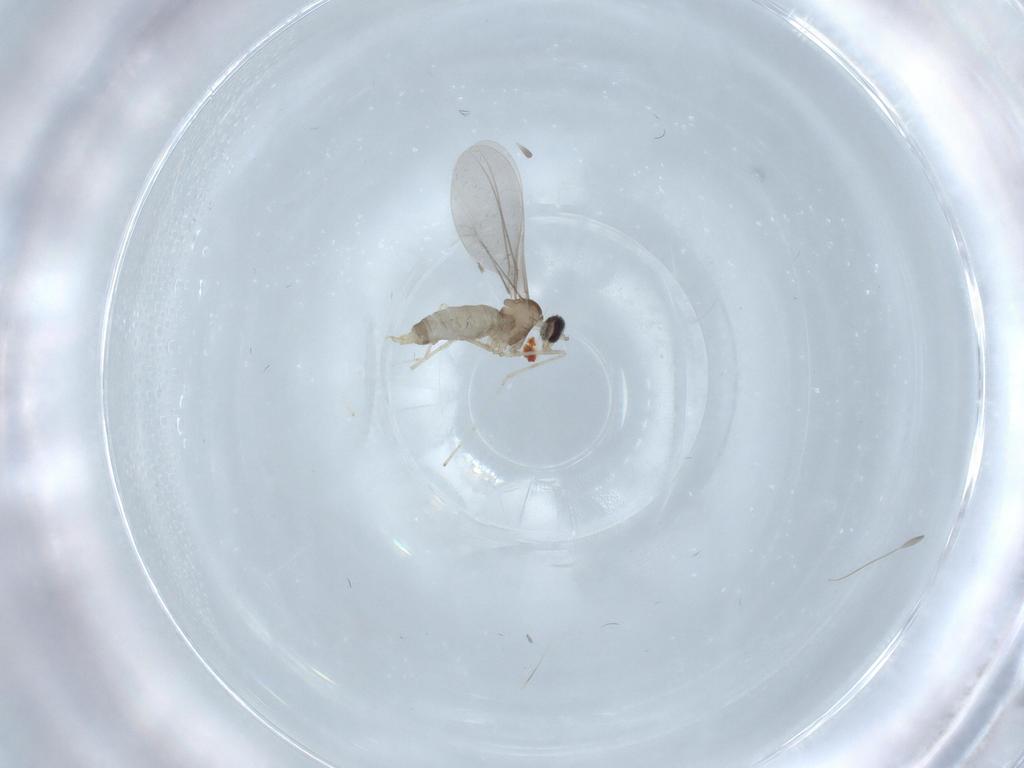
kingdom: Animalia
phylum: Arthropoda
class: Insecta
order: Diptera
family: Cecidomyiidae
